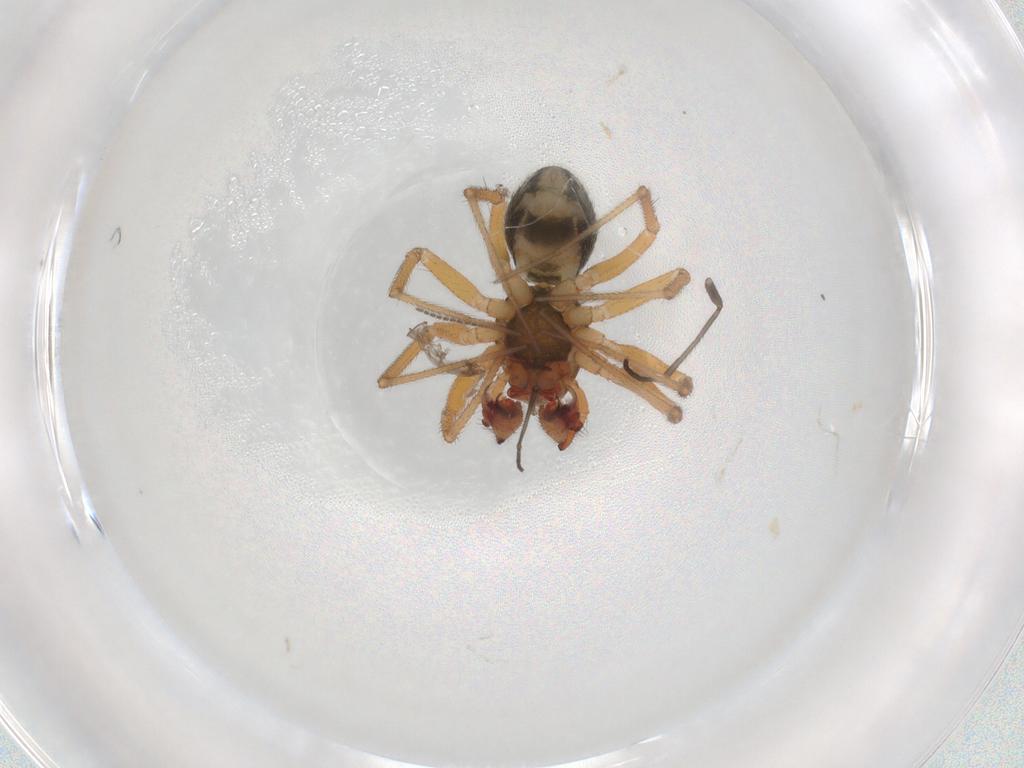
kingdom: Animalia
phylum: Arthropoda
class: Arachnida
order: Araneae
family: Linyphiidae
